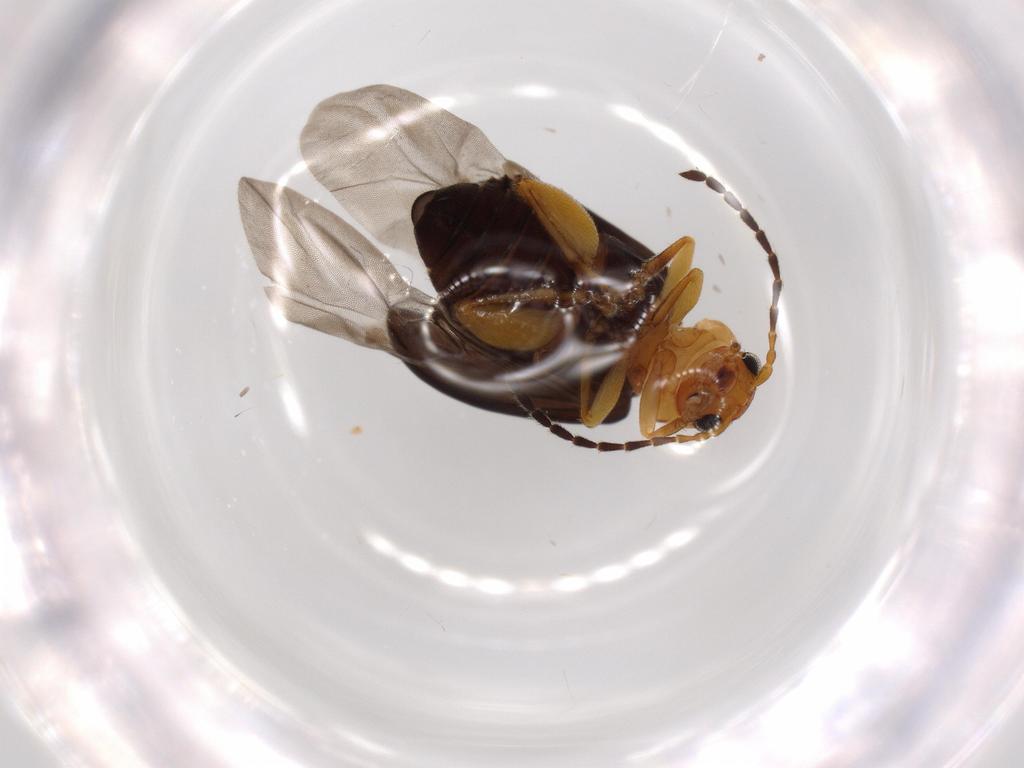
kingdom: Animalia
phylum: Arthropoda
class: Insecta
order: Coleoptera
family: Chrysomelidae
